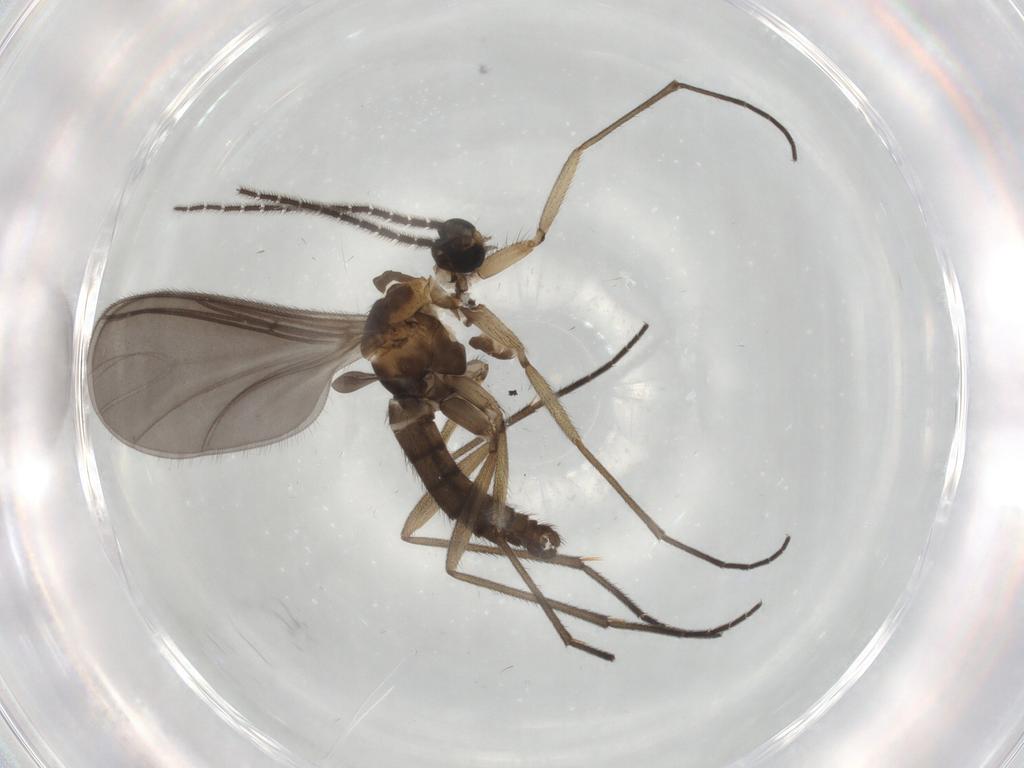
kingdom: Animalia
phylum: Arthropoda
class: Insecta
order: Diptera
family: Sciaridae
